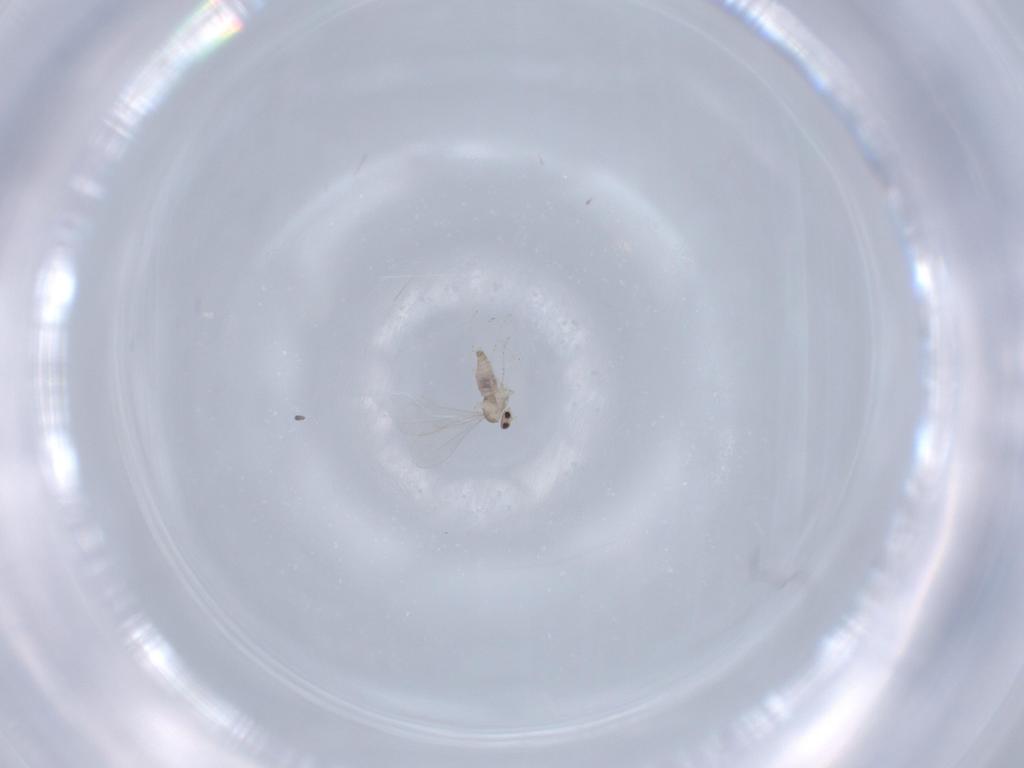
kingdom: Animalia
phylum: Arthropoda
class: Insecta
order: Diptera
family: Cecidomyiidae
